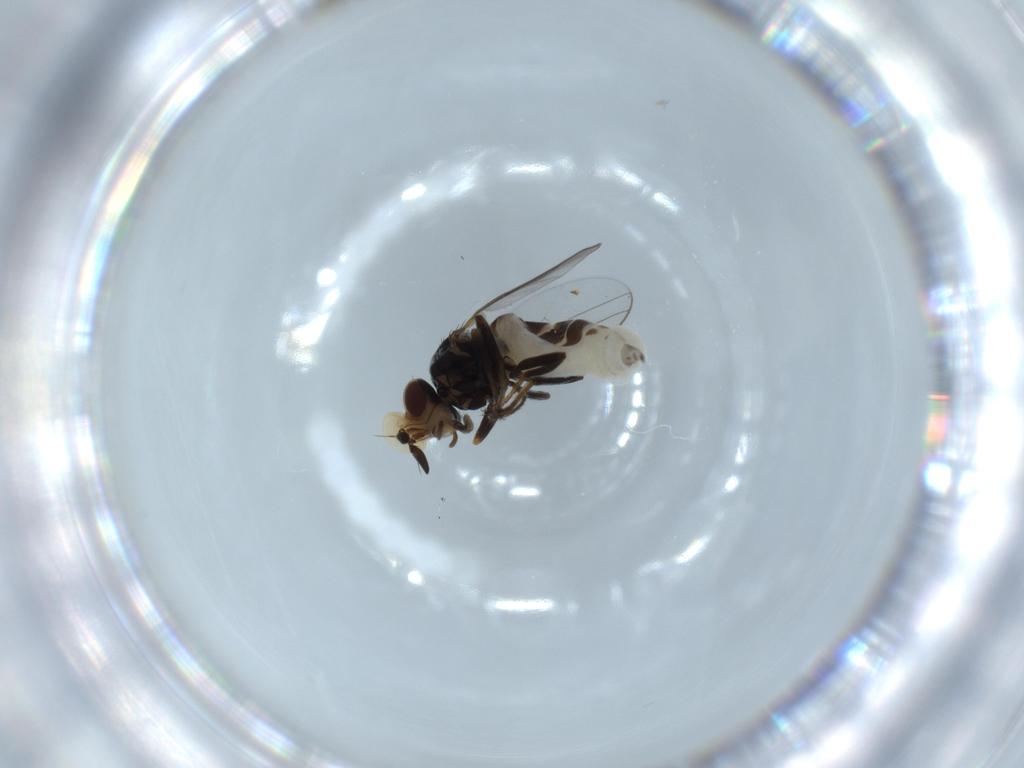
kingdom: Animalia
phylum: Arthropoda
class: Insecta
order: Diptera
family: Chloropidae
